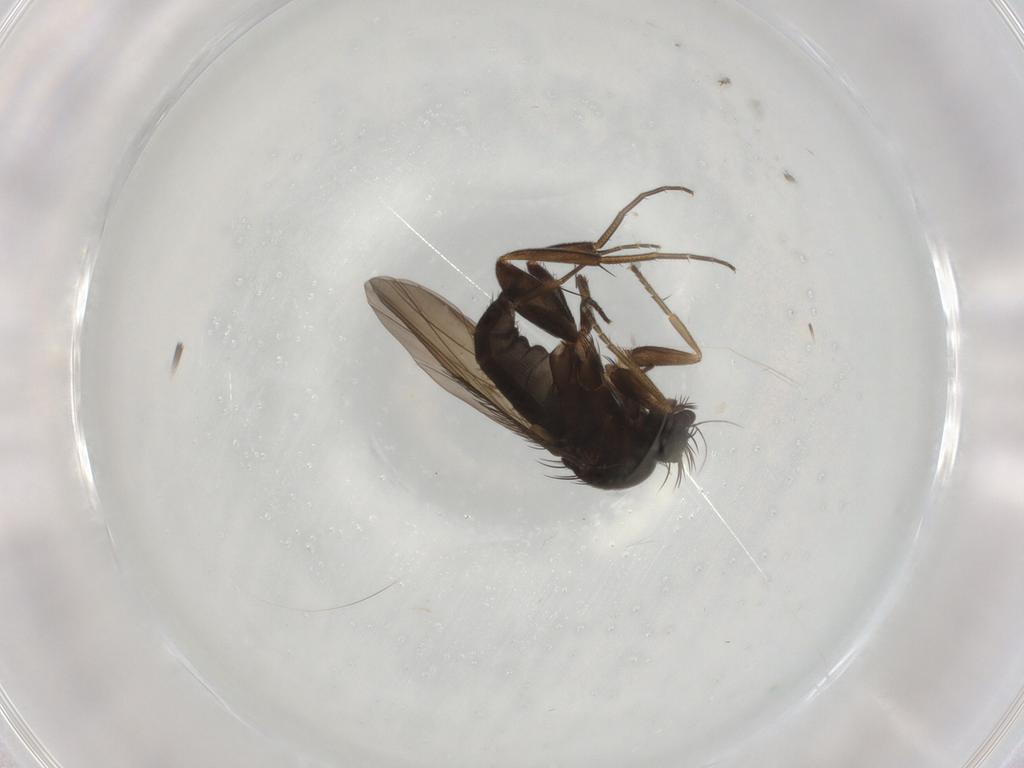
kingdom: Animalia
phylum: Arthropoda
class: Insecta
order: Diptera
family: Phoridae
